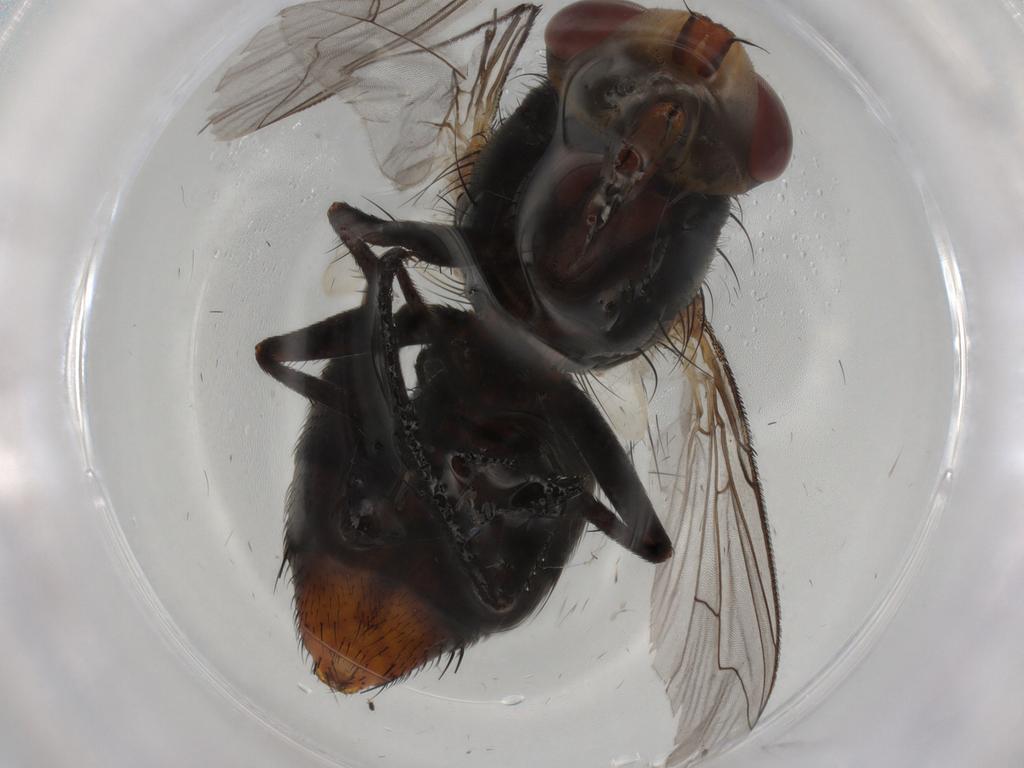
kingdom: Animalia
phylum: Arthropoda
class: Insecta
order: Diptera
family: Sarcophagidae
